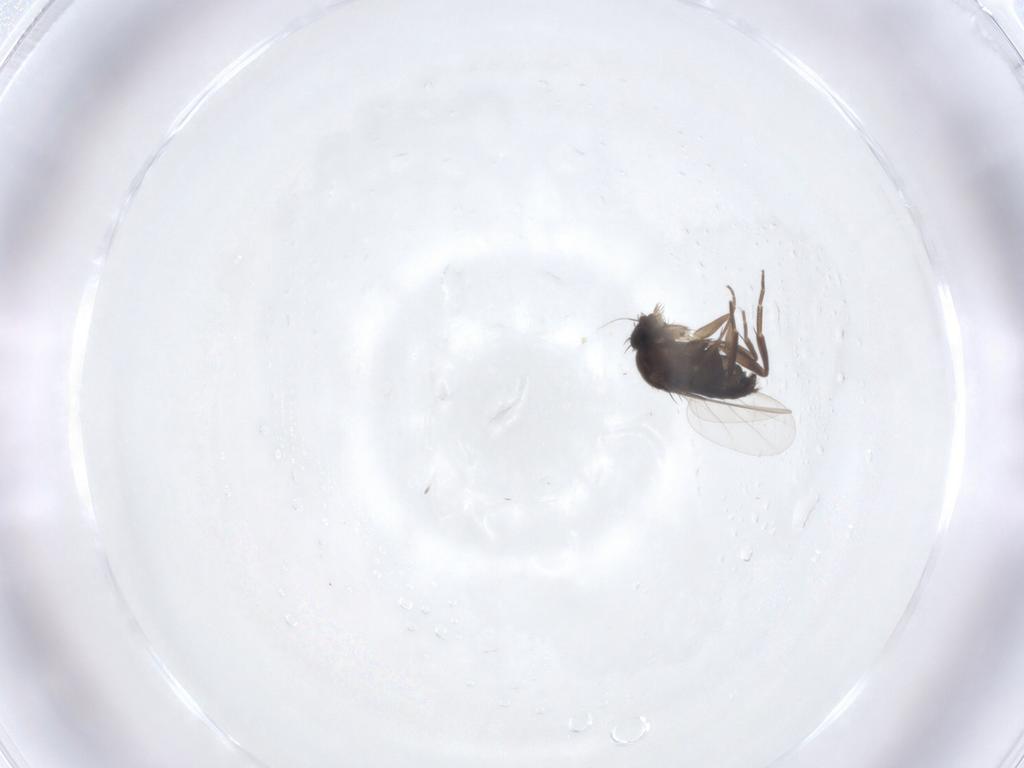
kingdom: Animalia
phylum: Arthropoda
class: Insecta
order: Diptera
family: Phoridae
